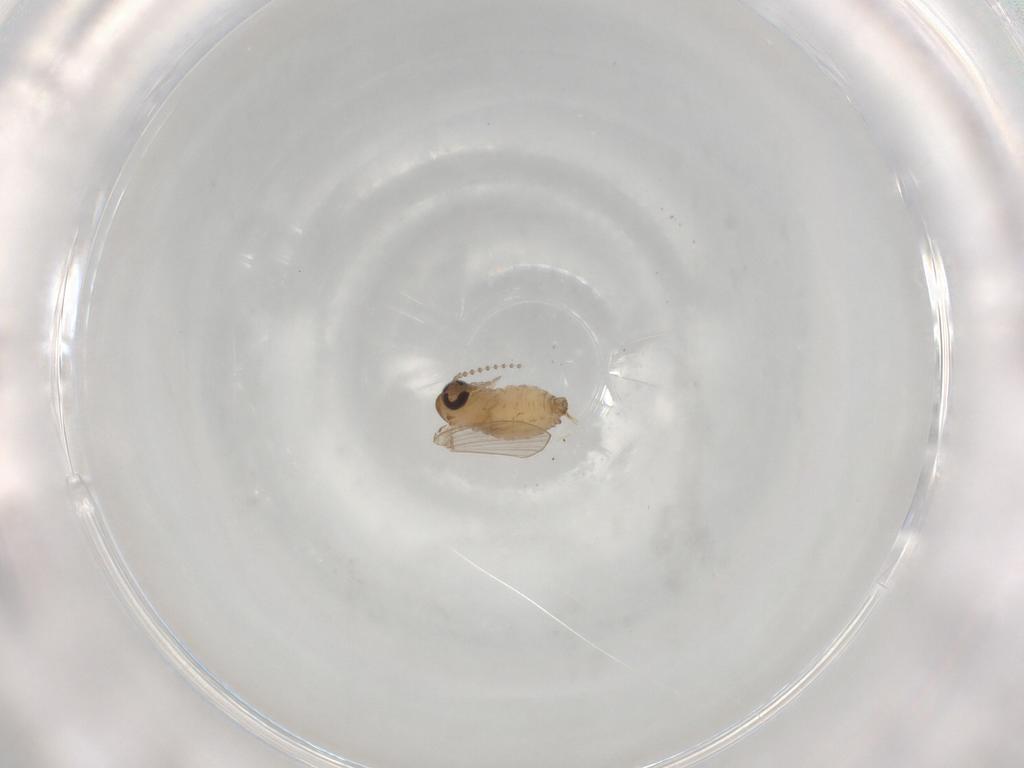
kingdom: Animalia
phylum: Arthropoda
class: Insecta
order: Diptera
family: Psychodidae
